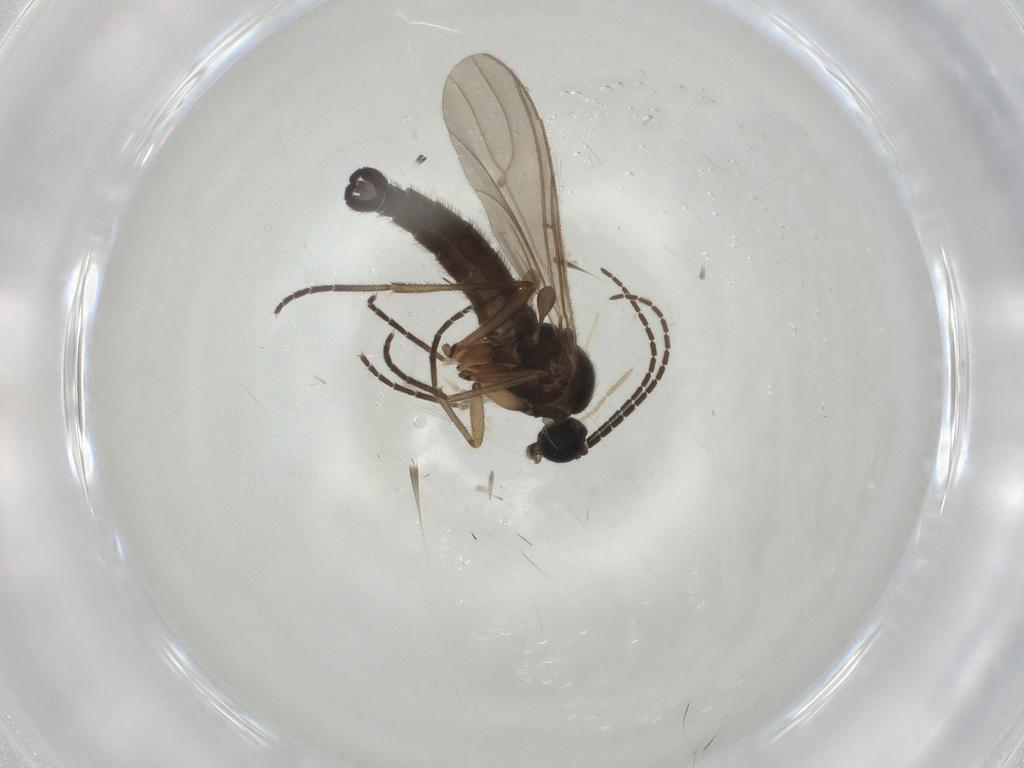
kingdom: Animalia
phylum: Arthropoda
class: Insecta
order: Diptera
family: Sciaridae
